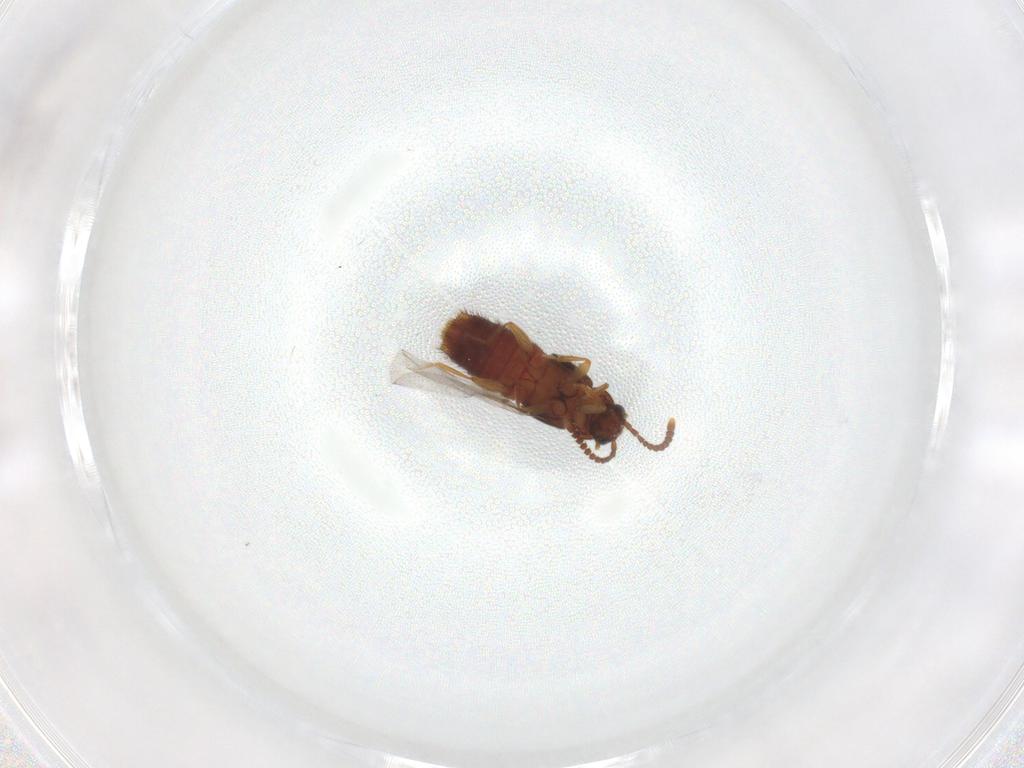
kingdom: Animalia
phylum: Arthropoda
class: Insecta
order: Coleoptera
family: Staphylinidae
